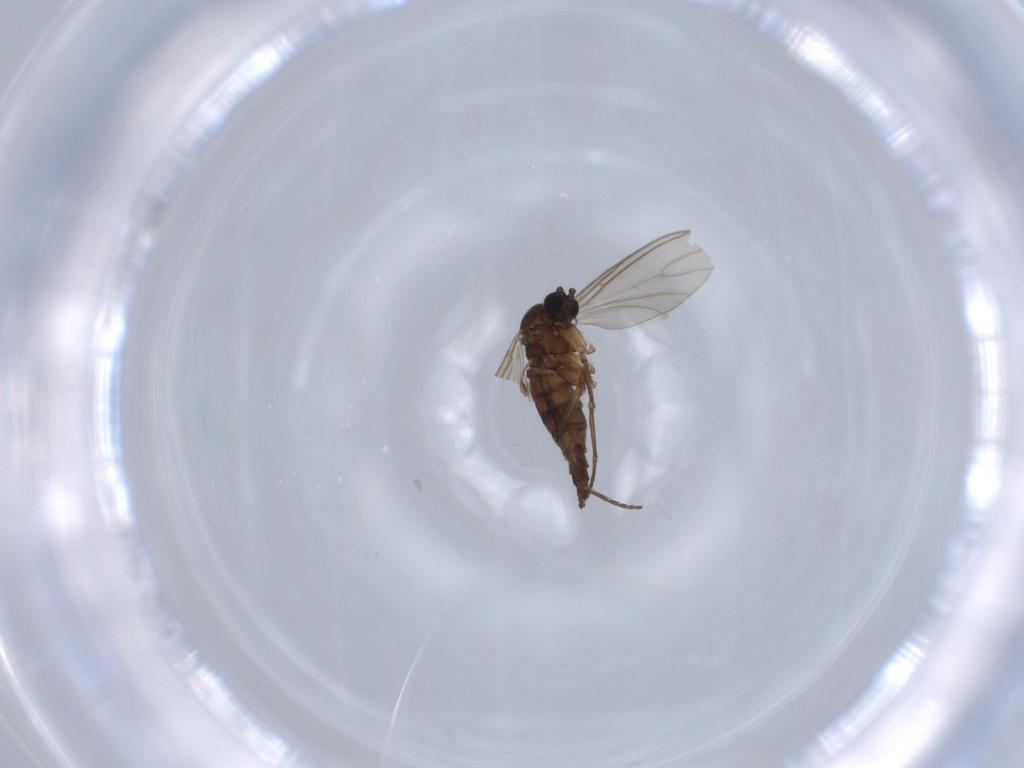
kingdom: Animalia
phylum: Arthropoda
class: Insecta
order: Diptera
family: Sciaridae
